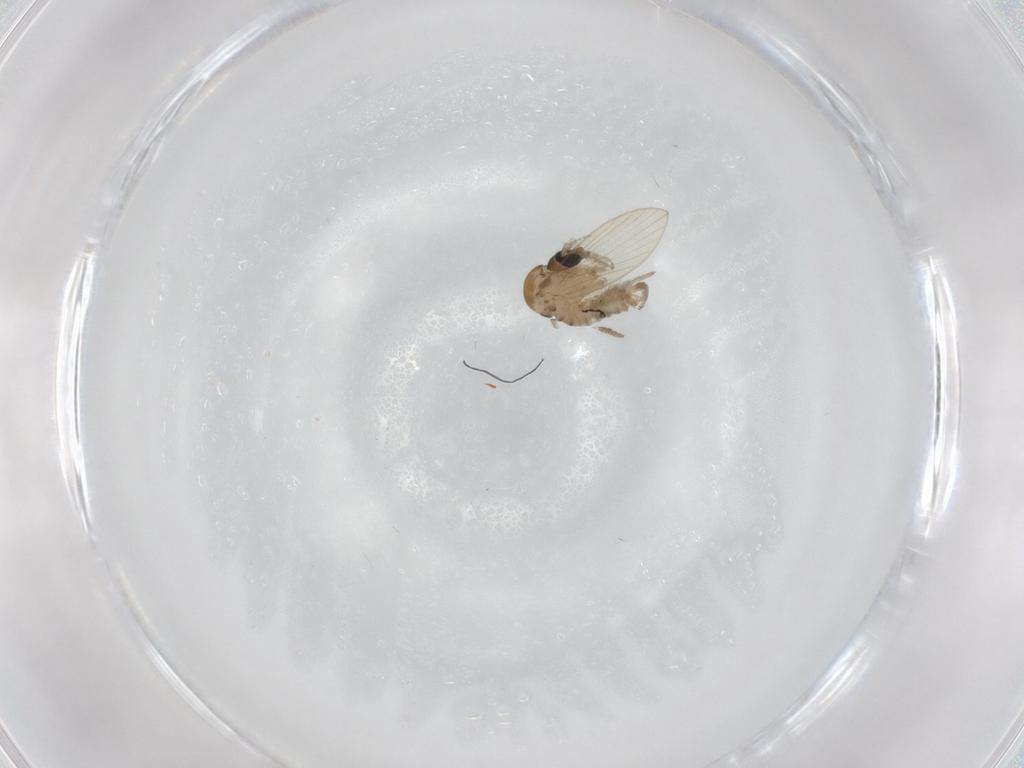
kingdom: Animalia
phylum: Arthropoda
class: Insecta
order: Diptera
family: Psychodidae
